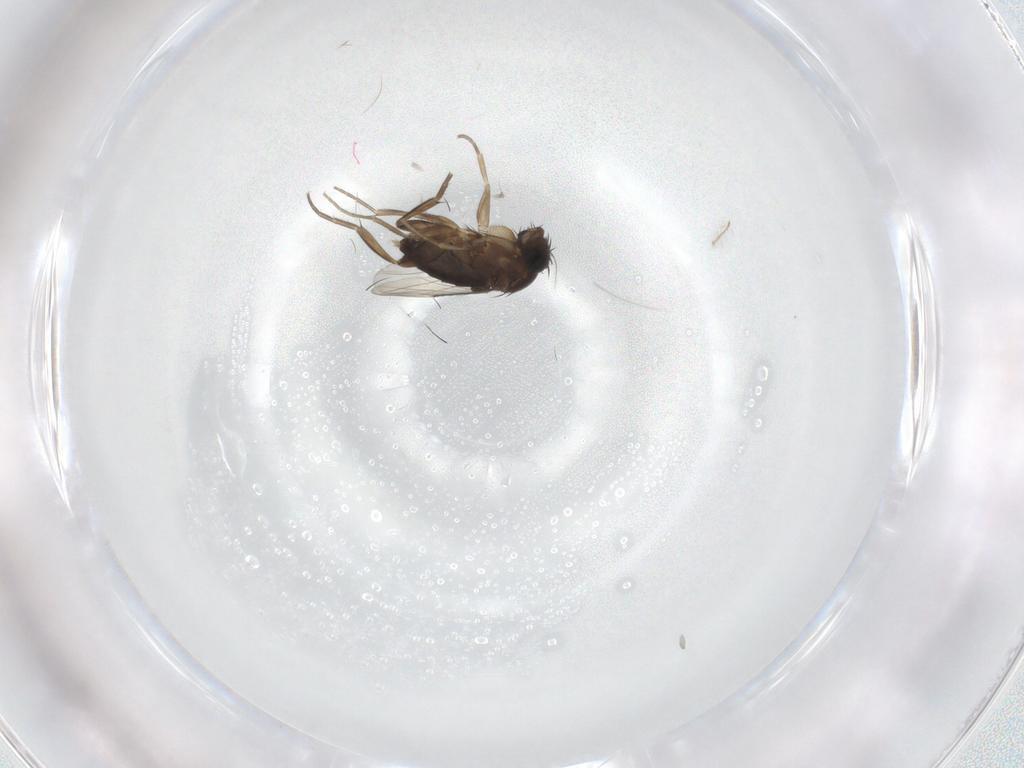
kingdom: Animalia
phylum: Arthropoda
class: Insecta
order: Diptera
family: Phoridae
